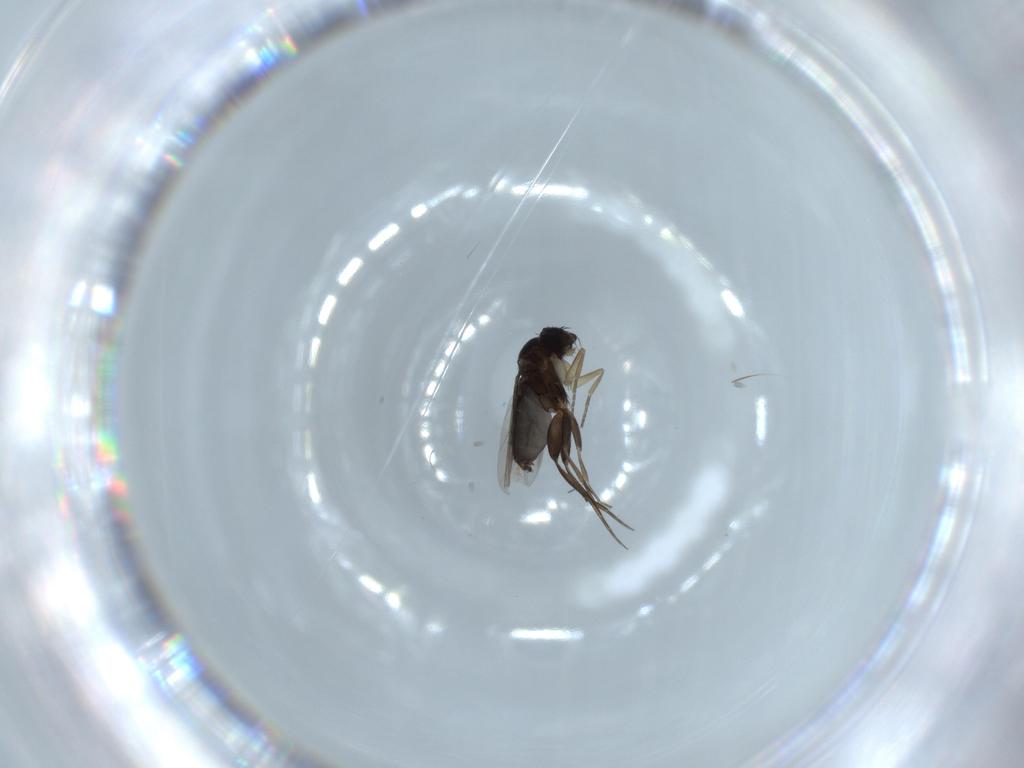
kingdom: Animalia
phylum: Arthropoda
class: Insecta
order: Diptera
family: Phoridae
